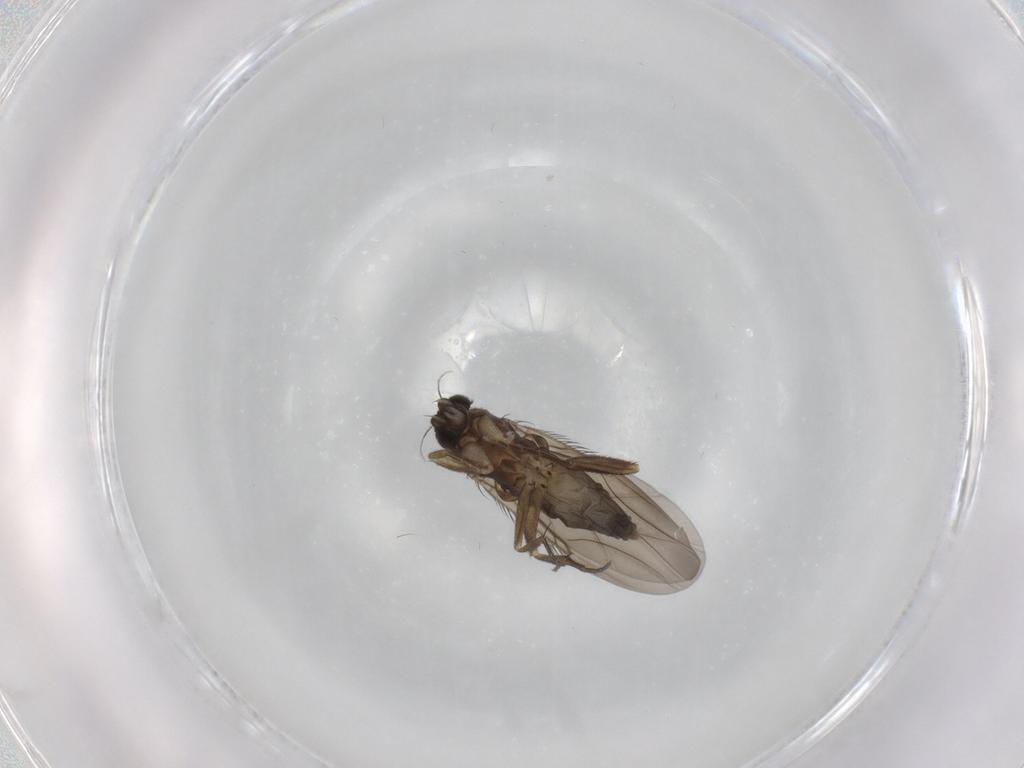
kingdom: Animalia
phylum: Arthropoda
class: Insecta
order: Diptera
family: Phoridae
